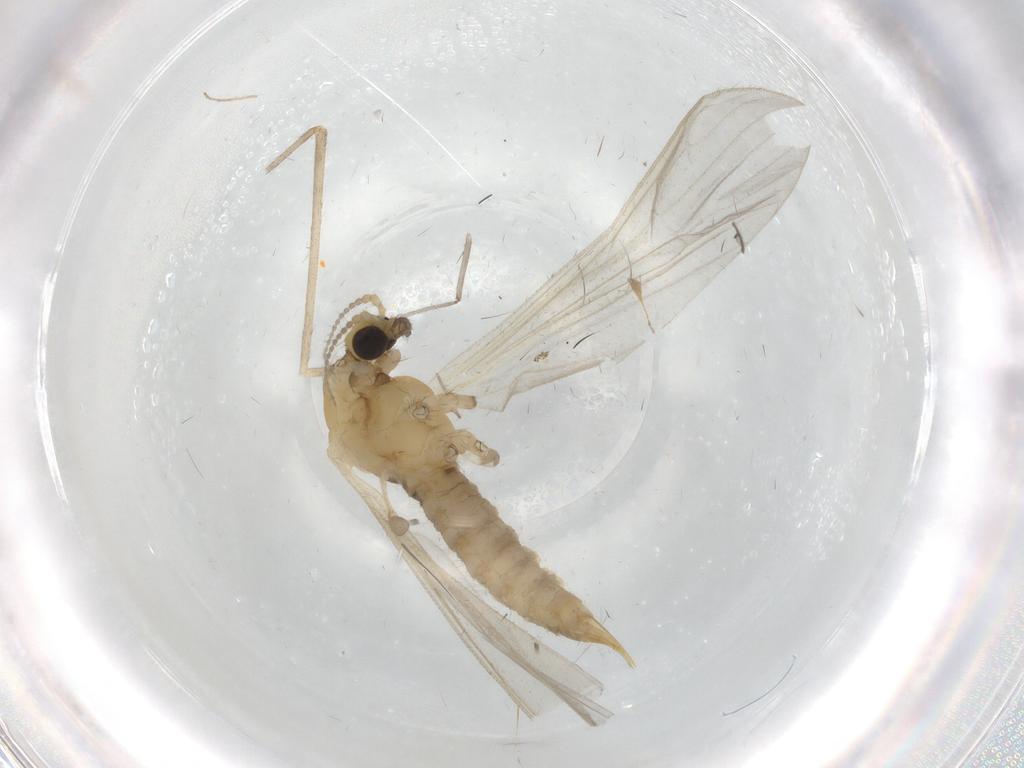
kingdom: Animalia
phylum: Arthropoda
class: Insecta
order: Diptera
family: Limoniidae
